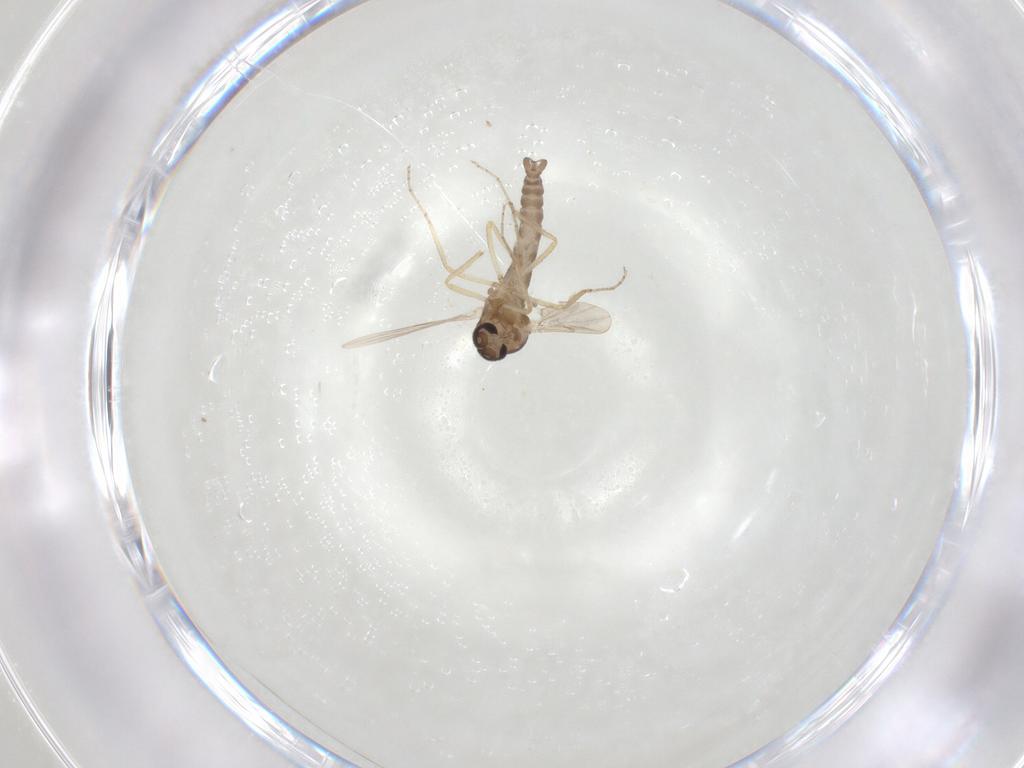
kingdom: Animalia
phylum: Arthropoda
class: Insecta
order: Diptera
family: Ceratopogonidae
